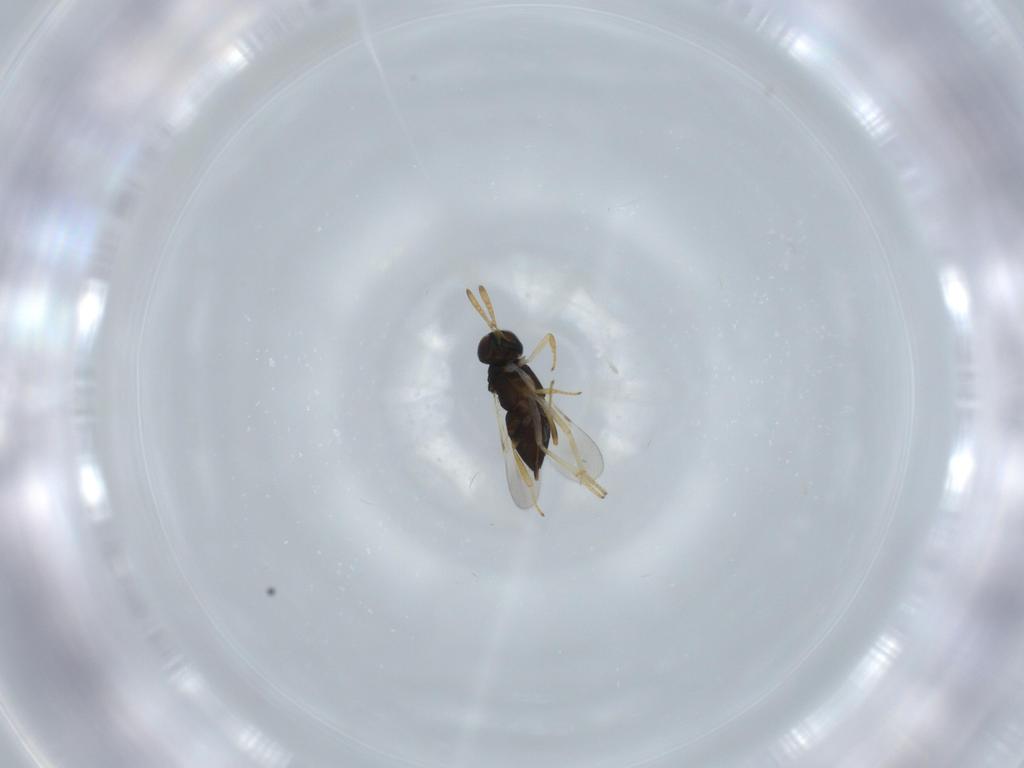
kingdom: Animalia
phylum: Arthropoda
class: Insecta
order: Hymenoptera
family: Encyrtidae
